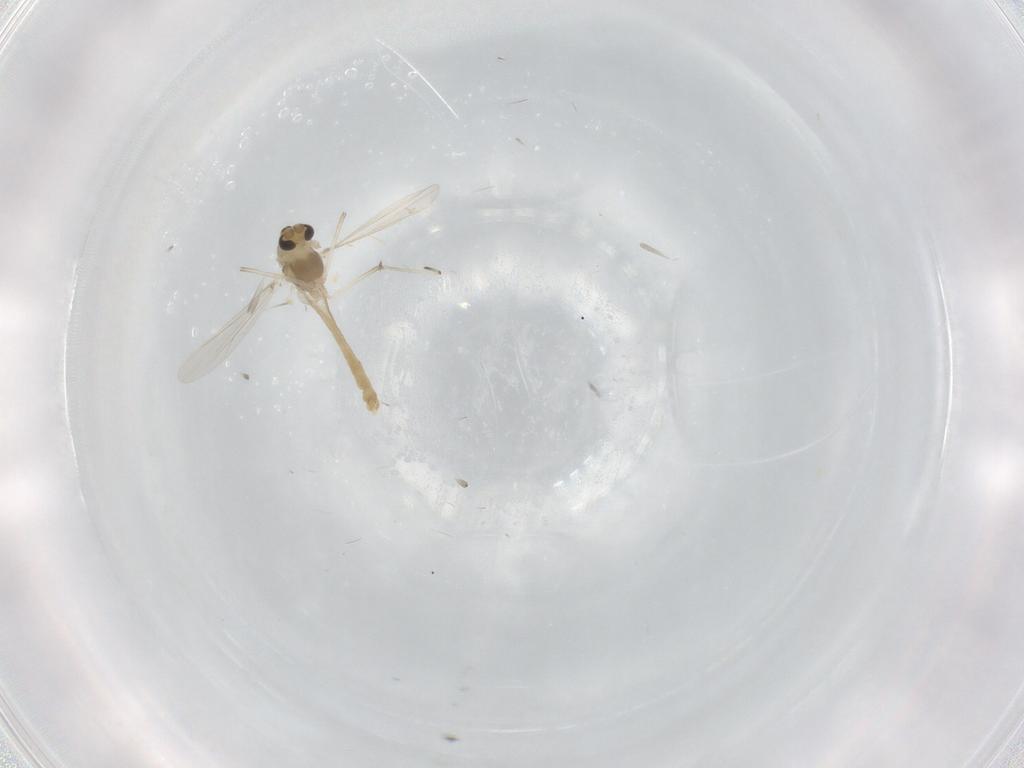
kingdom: Animalia
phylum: Arthropoda
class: Insecta
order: Diptera
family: Chironomidae
